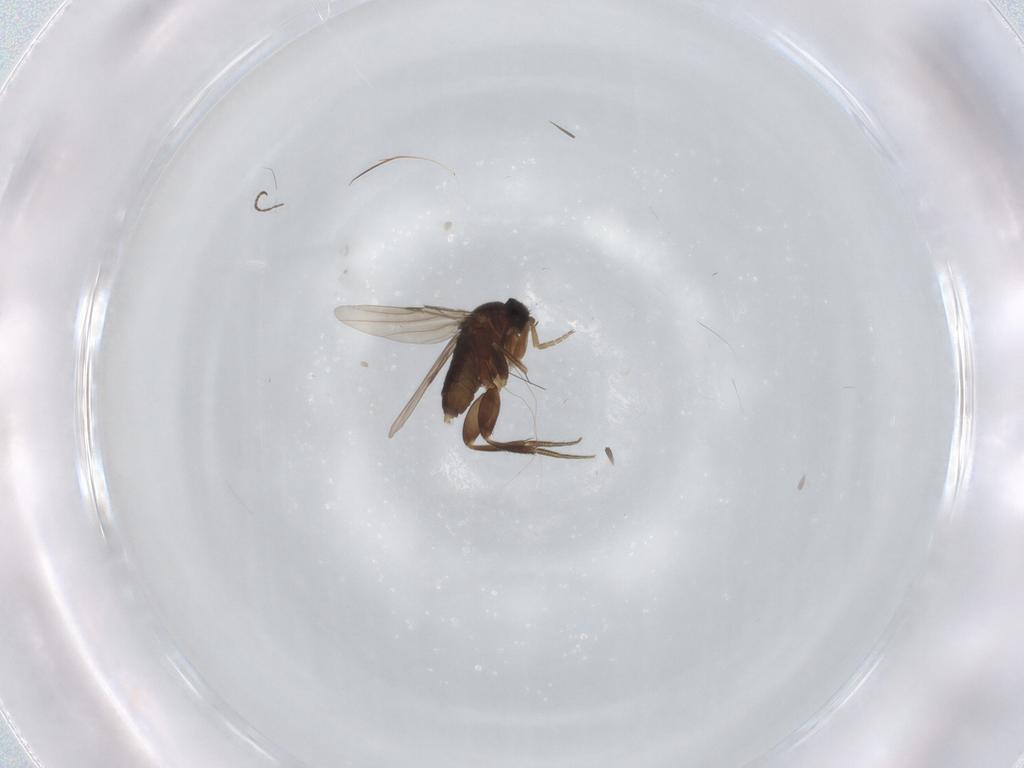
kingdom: Animalia
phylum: Arthropoda
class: Insecta
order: Diptera
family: Phoridae
